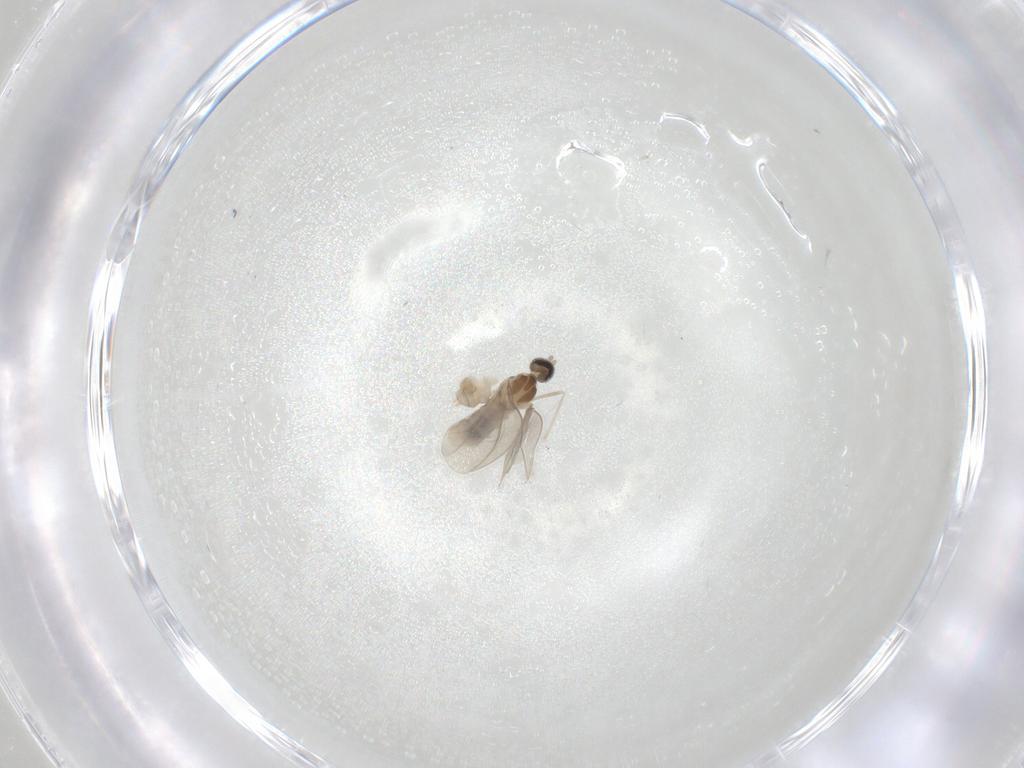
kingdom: Animalia
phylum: Arthropoda
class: Insecta
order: Diptera
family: Cecidomyiidae
